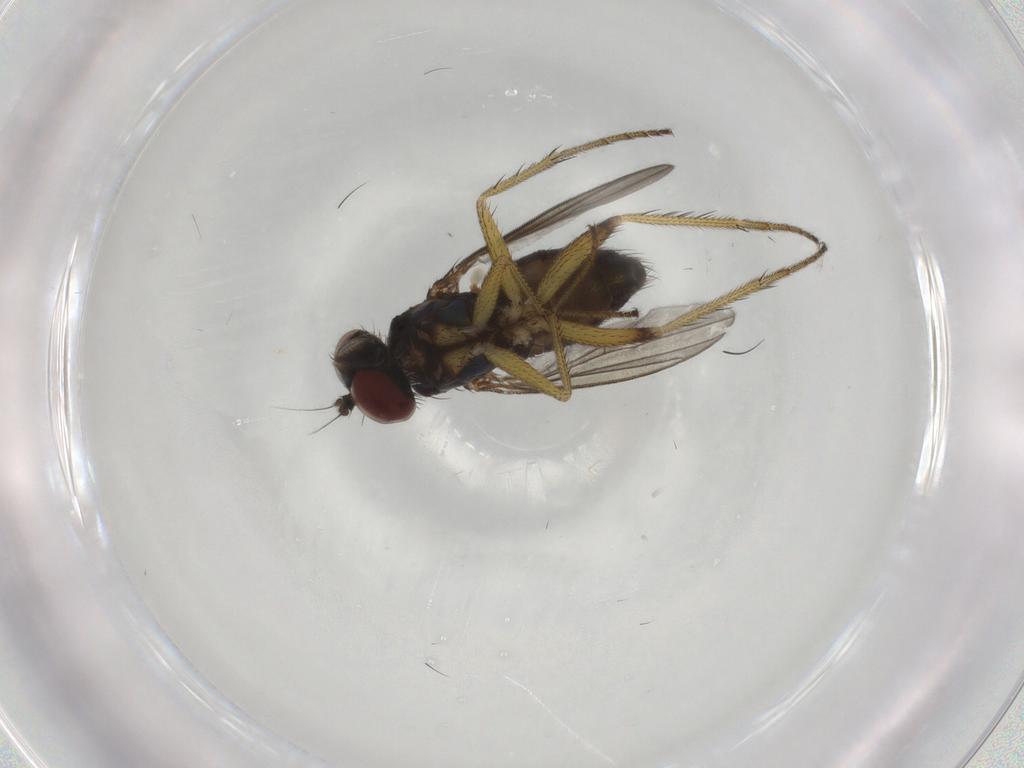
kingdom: Animalia
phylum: Arthropoda
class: Insecta
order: Diptera
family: Dolichopodidae
